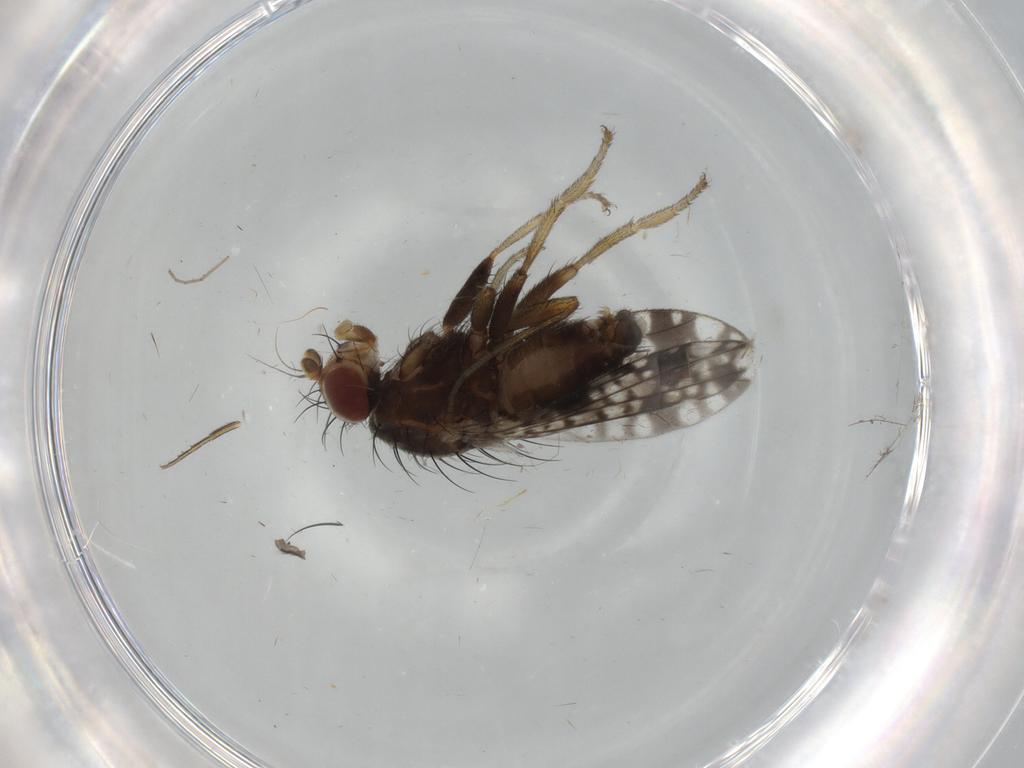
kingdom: Animalia
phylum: Arthropoda
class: Insecta
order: Diptera
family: Tephritidae
